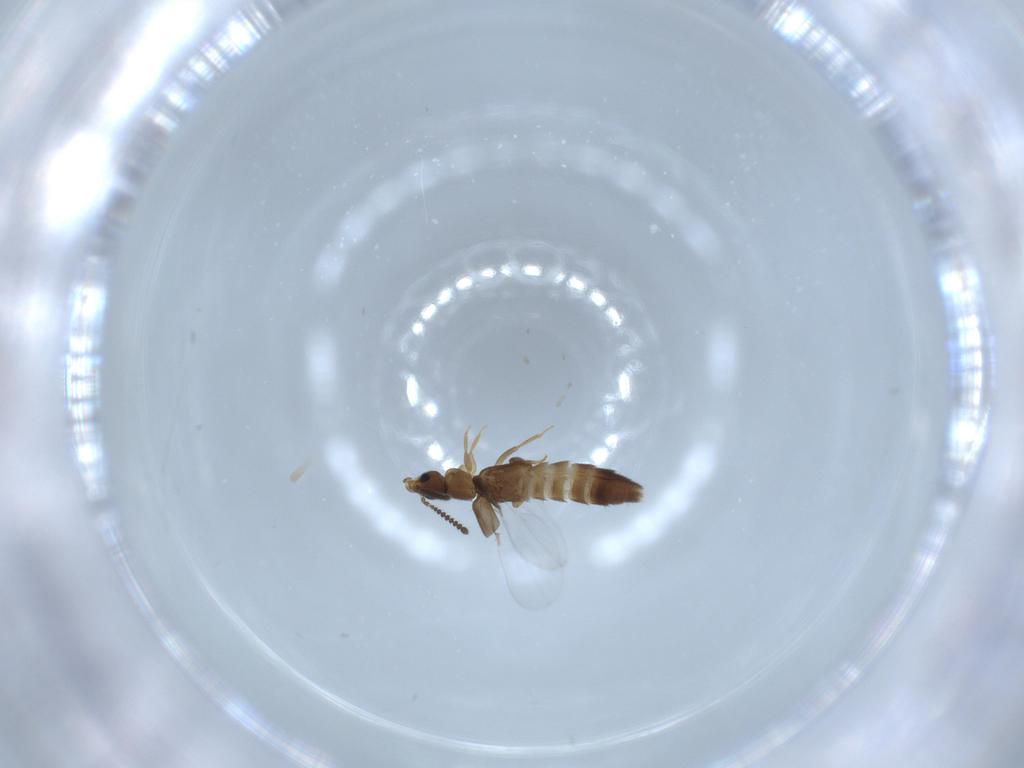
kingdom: Animalia
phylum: Arthropoda
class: Insecta
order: Coleoptera
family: Staphylinidae
